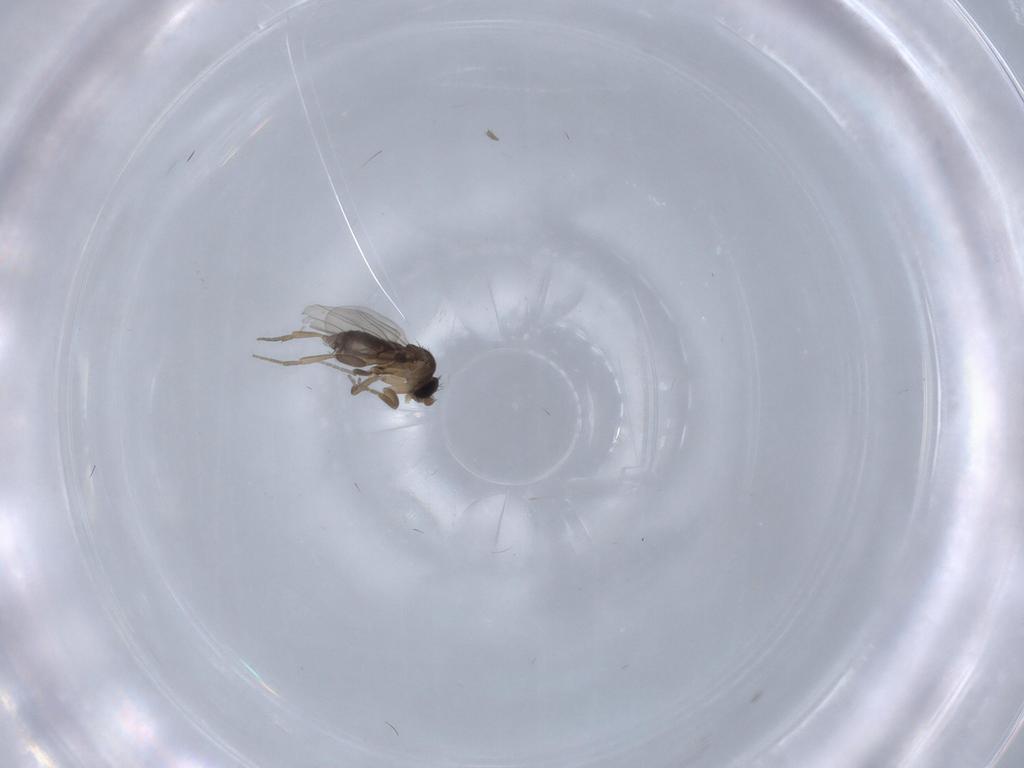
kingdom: Animalia
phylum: Arthropoda
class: Insecta
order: Diptera
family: Phoridae
